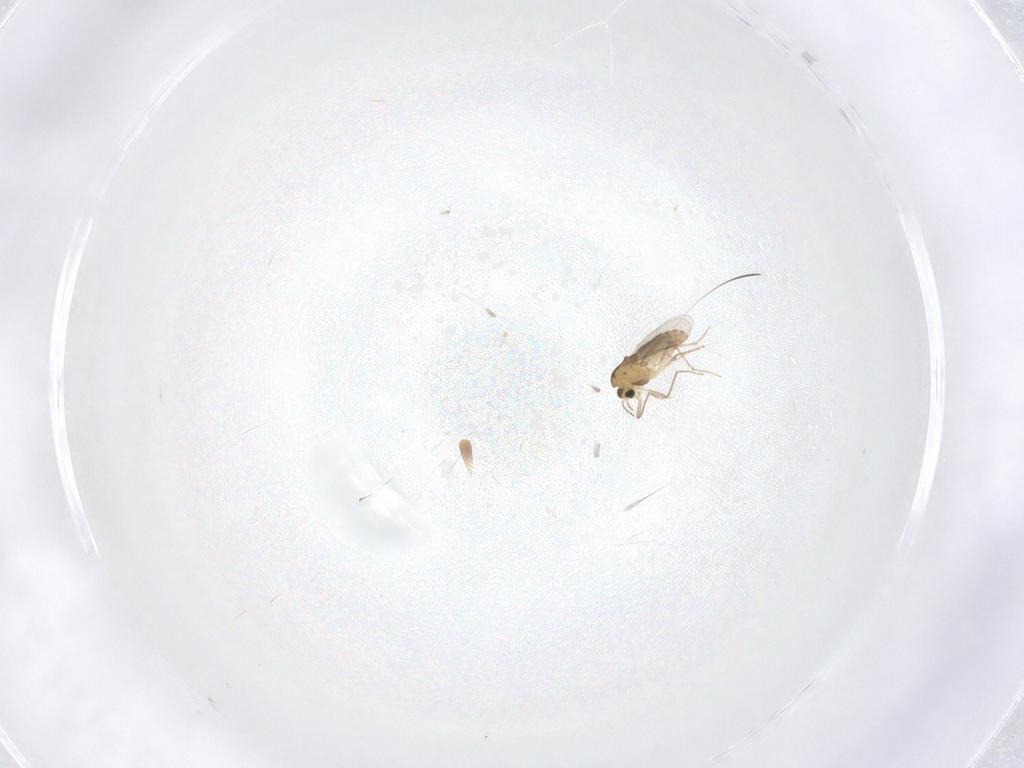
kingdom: Animalia
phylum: Arthropoda
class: Insecta
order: Diptera
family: Chironomidae
